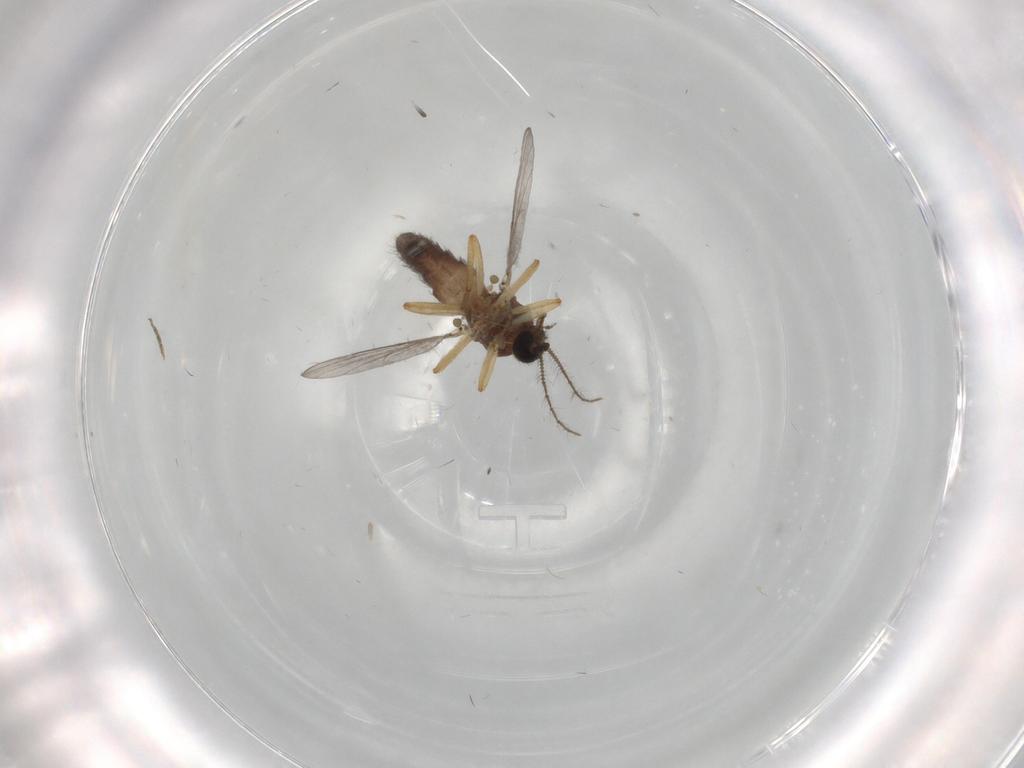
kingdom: Animalia
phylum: Arthropoda
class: Insecta
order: Diptera
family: Ceratopogonidae
